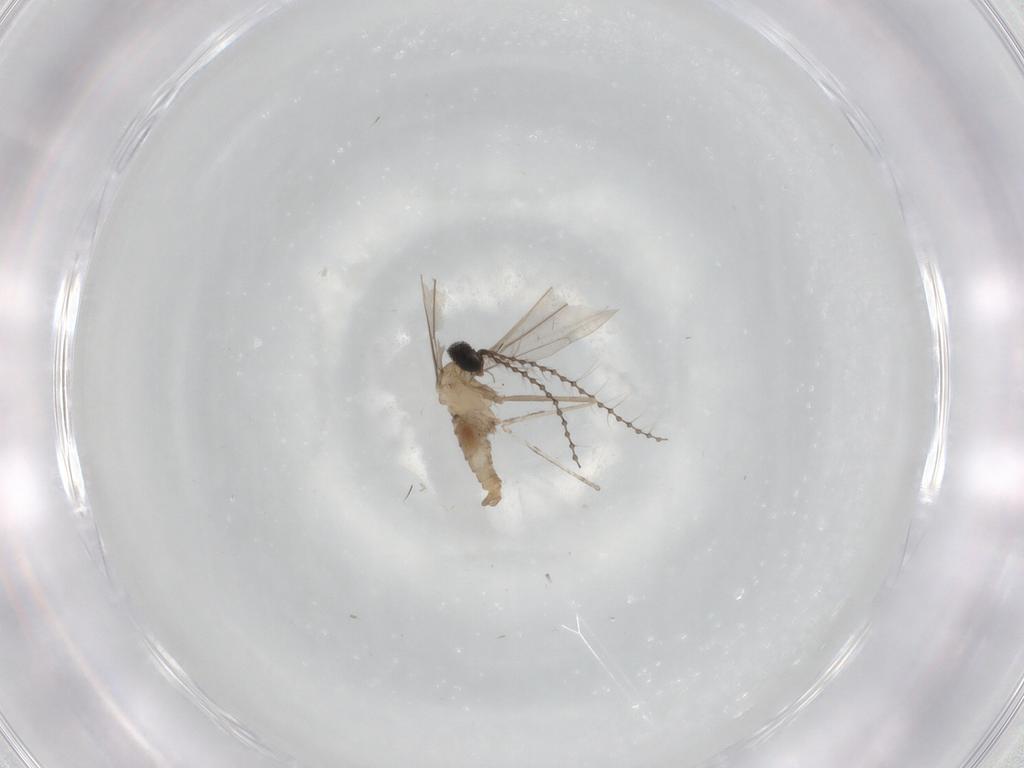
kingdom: Animalia
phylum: Arthropoda
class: Insecta
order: Diptera
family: Cecidomyiidae
